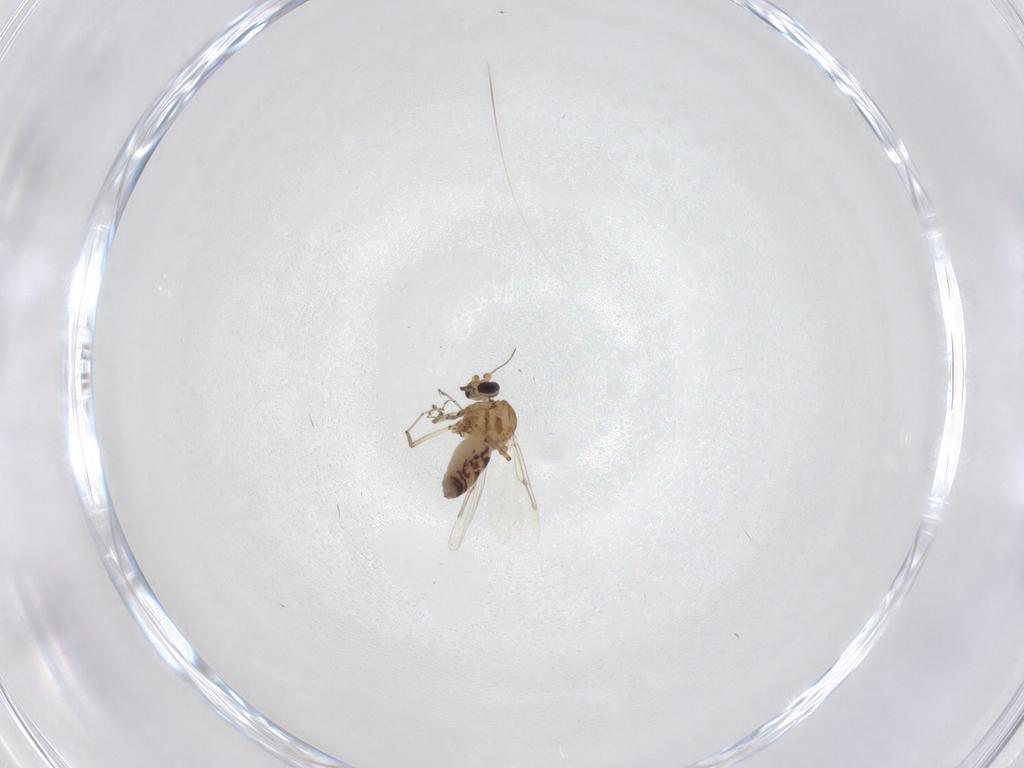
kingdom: Animalia
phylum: Arthropoda
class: Insecta
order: Diptera
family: Ceratopogonidae
